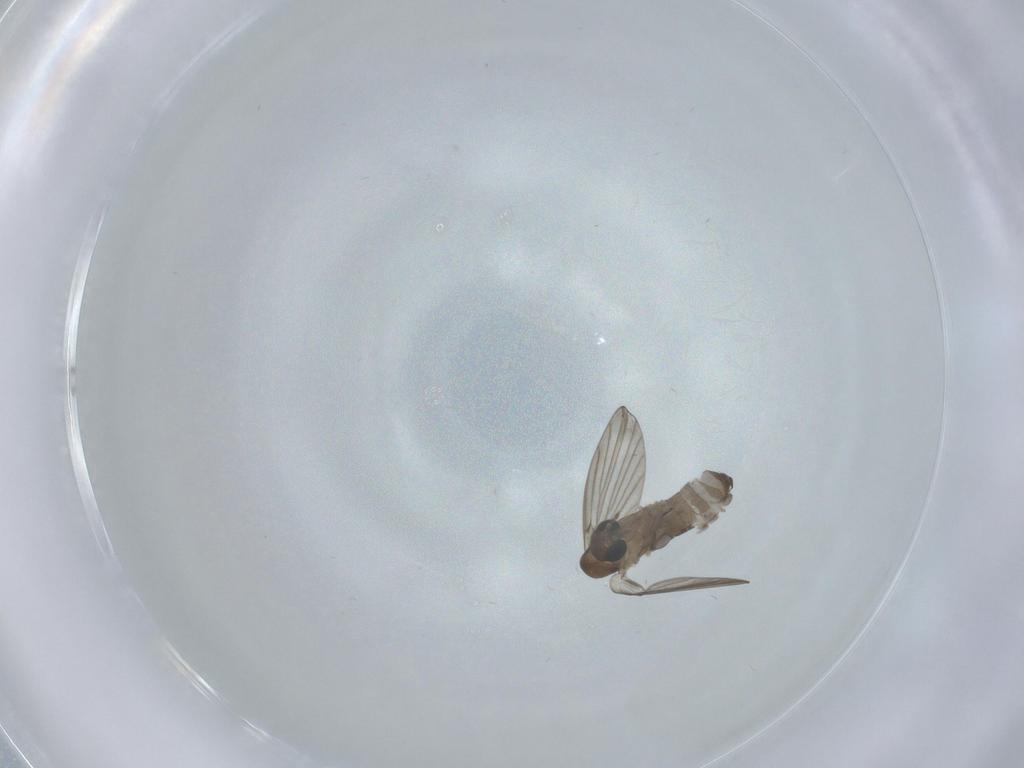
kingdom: Animalia
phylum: Arthropoda
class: Insecta
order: Diptera
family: Psychodidae
